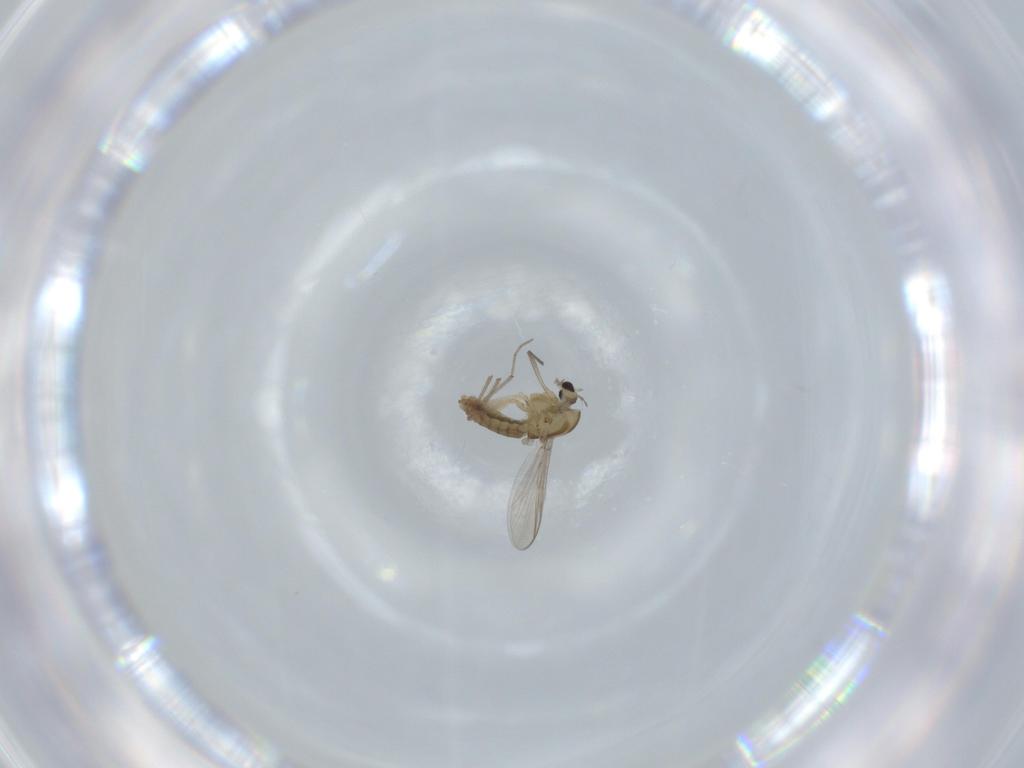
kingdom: Animalia
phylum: Arthropoda
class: Insecta
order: Diptera
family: Chironomidae
